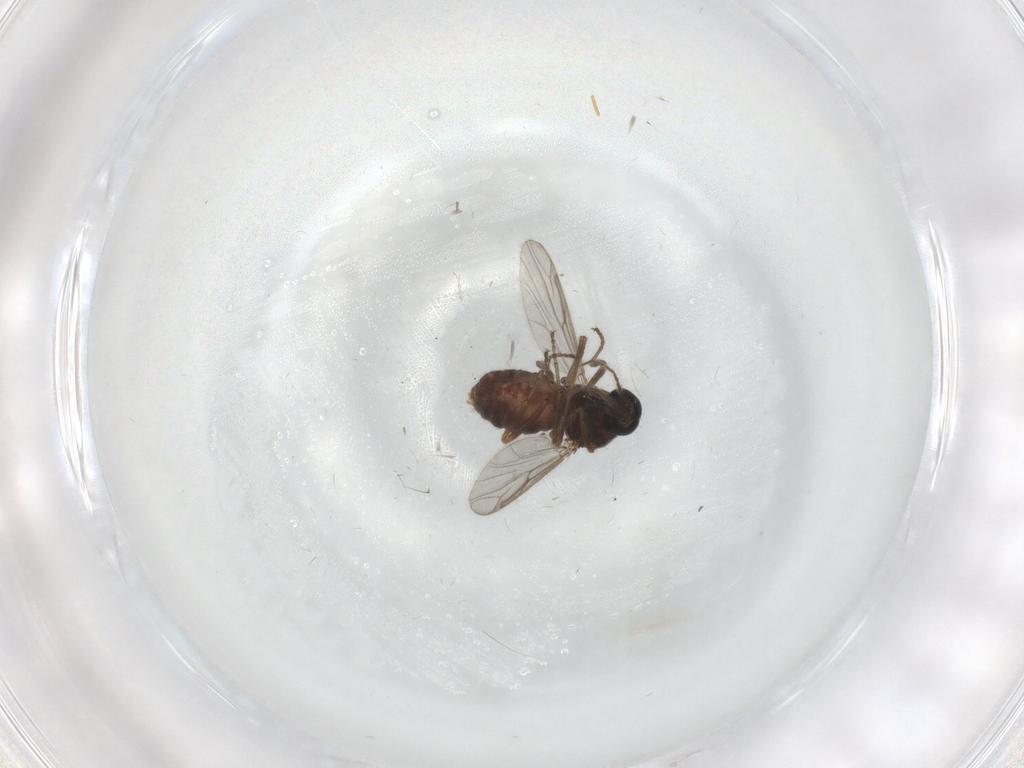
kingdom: Animalia
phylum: Arthropoda
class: Insecta
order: Diptera
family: Ceratopogonidae
